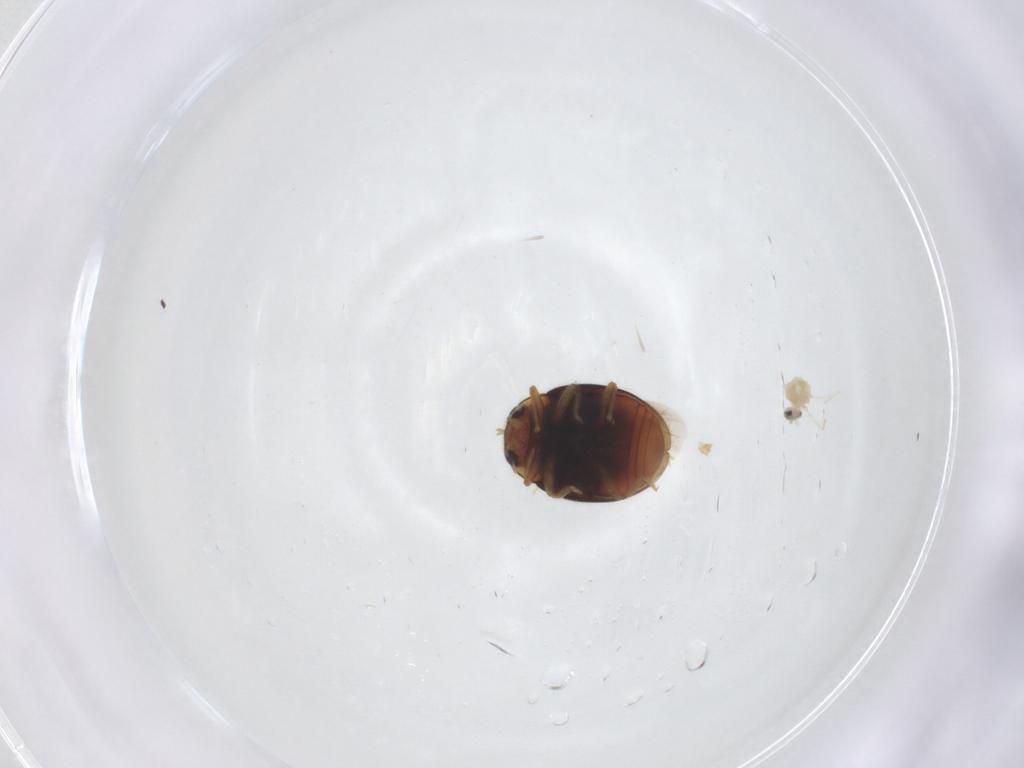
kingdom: Animalia
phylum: Arthropoda
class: Insecta
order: Coleoptera
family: Coccinellidae
